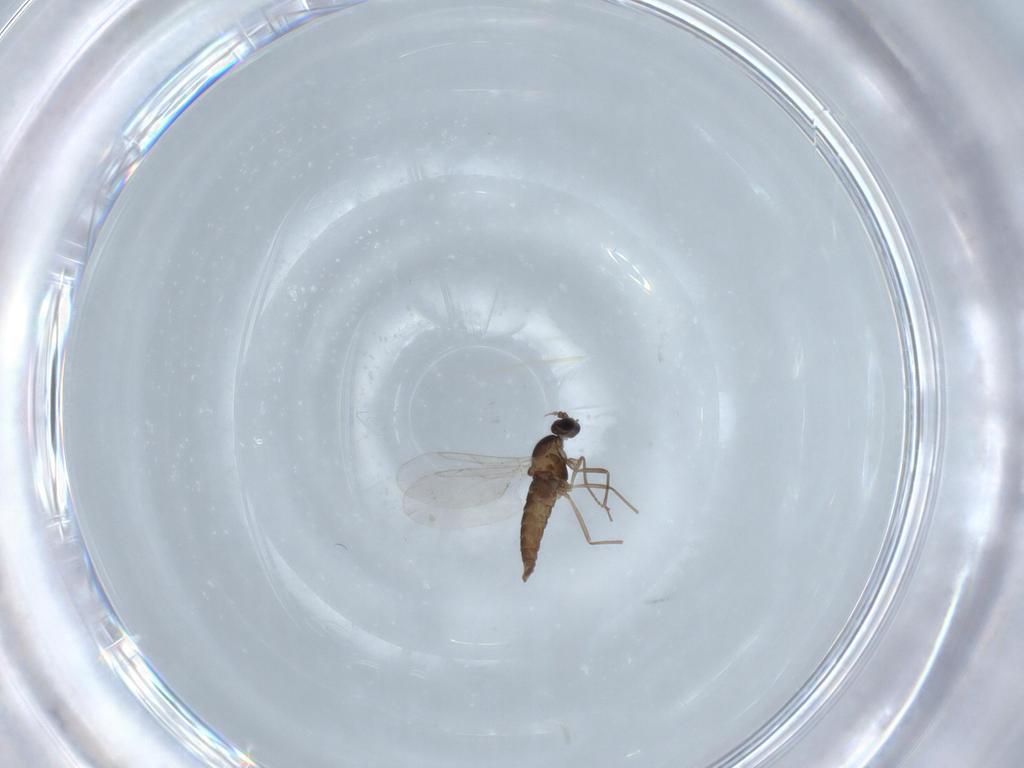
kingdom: Animalia
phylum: Arthropoda
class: Insecta
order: Diptera
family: Cecidomyiidae
